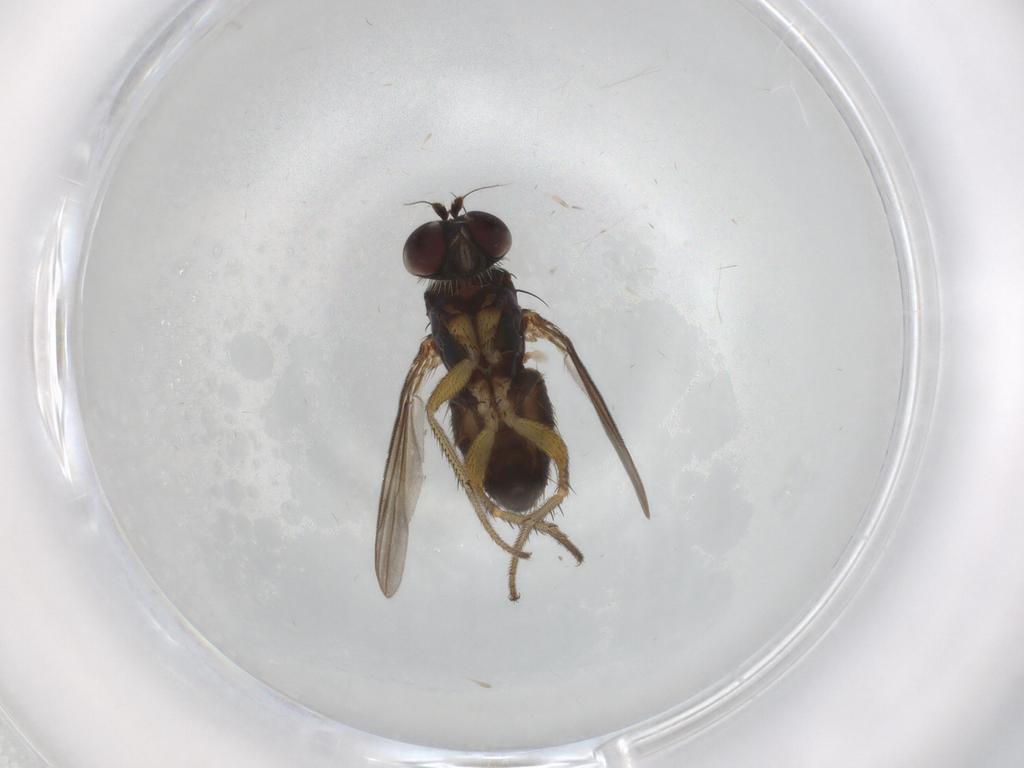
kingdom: Animalia
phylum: Arthropoda
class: Insecta
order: Diptera
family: Dolichopodidae
